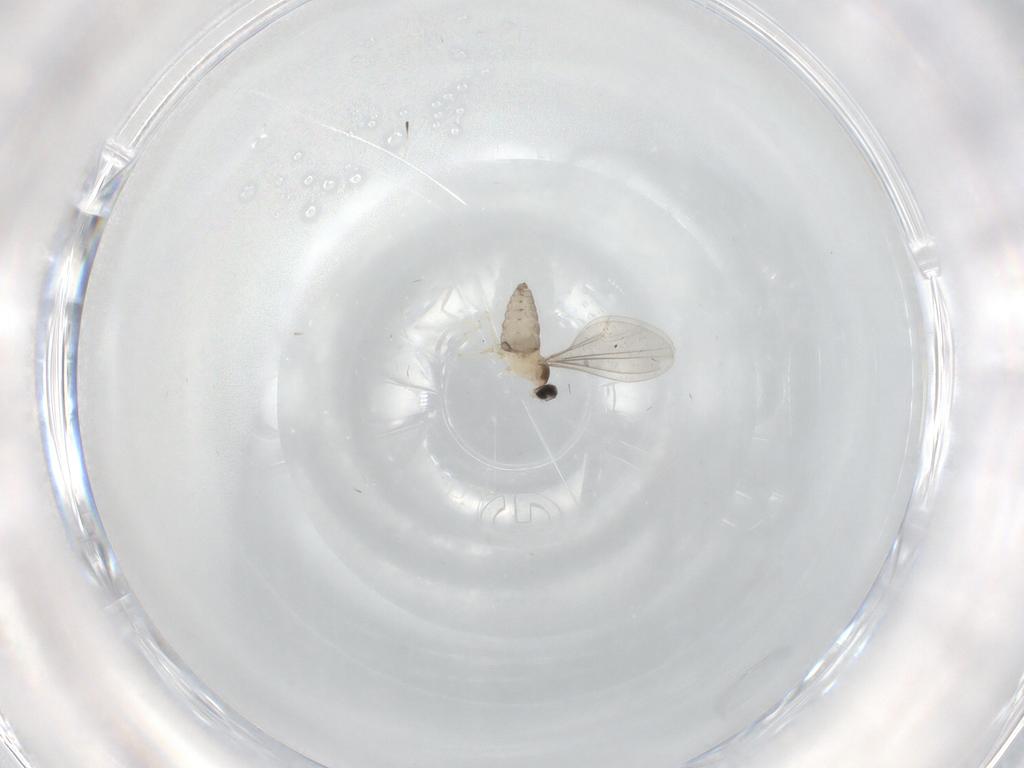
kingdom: Animalia
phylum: Arthropoda
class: Insecta
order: Diptera
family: Cecidomyiidae
